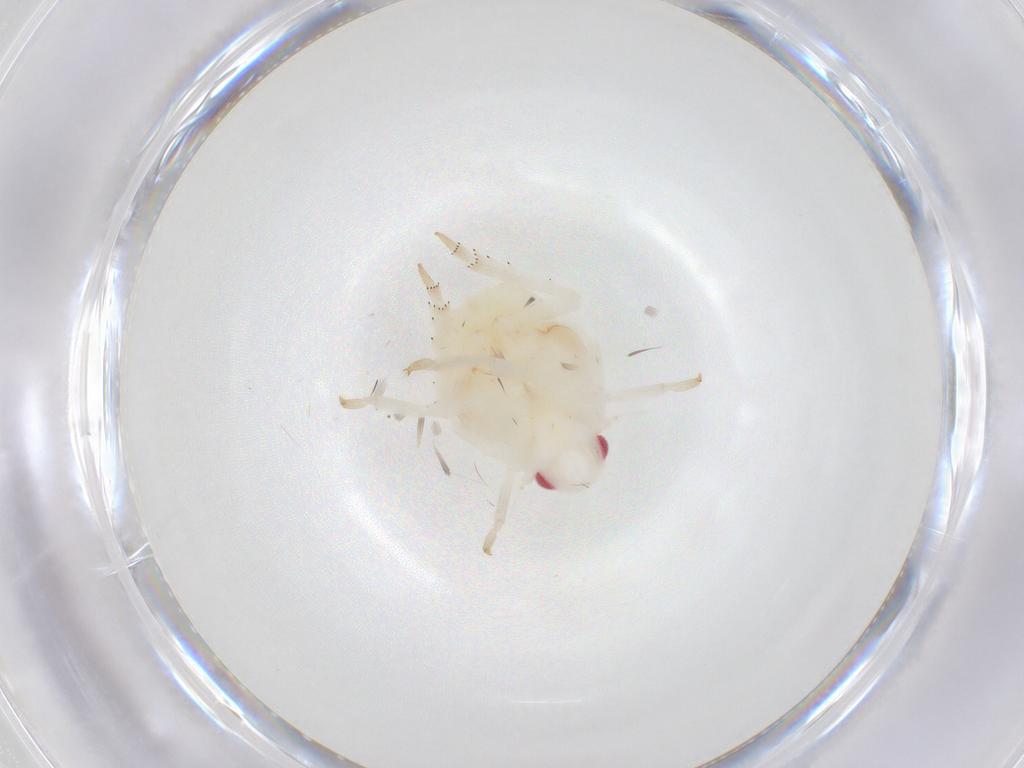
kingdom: Animalia
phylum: Arthropoda
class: Insecta
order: Hemiptera
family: Flatidae
